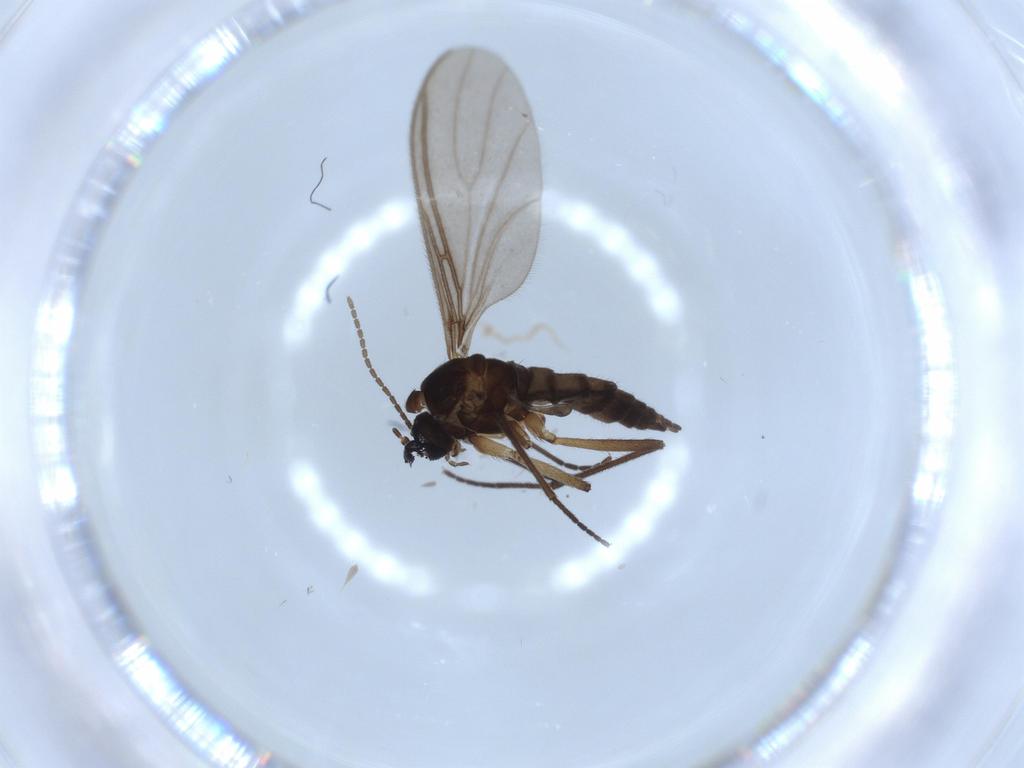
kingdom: Animalia
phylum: Arthropoda
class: Insecta
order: Diptera
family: Sciaridae
